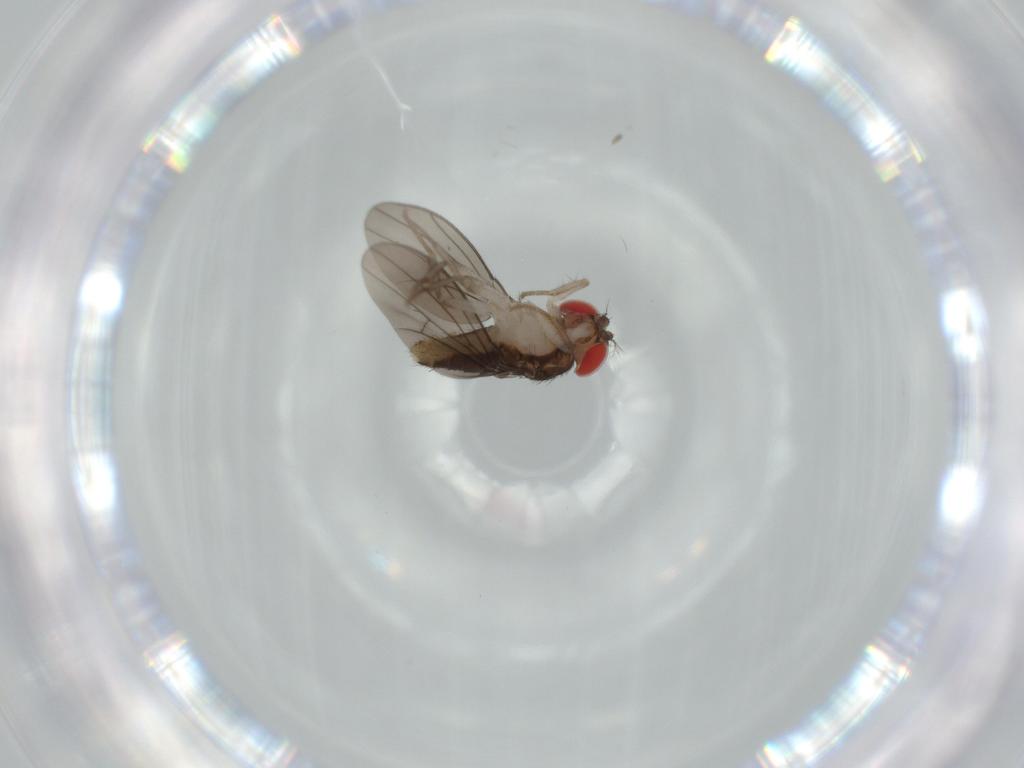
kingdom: Animalia
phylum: Arthropoda
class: Insecta
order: Diptera
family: Drosophilidae
